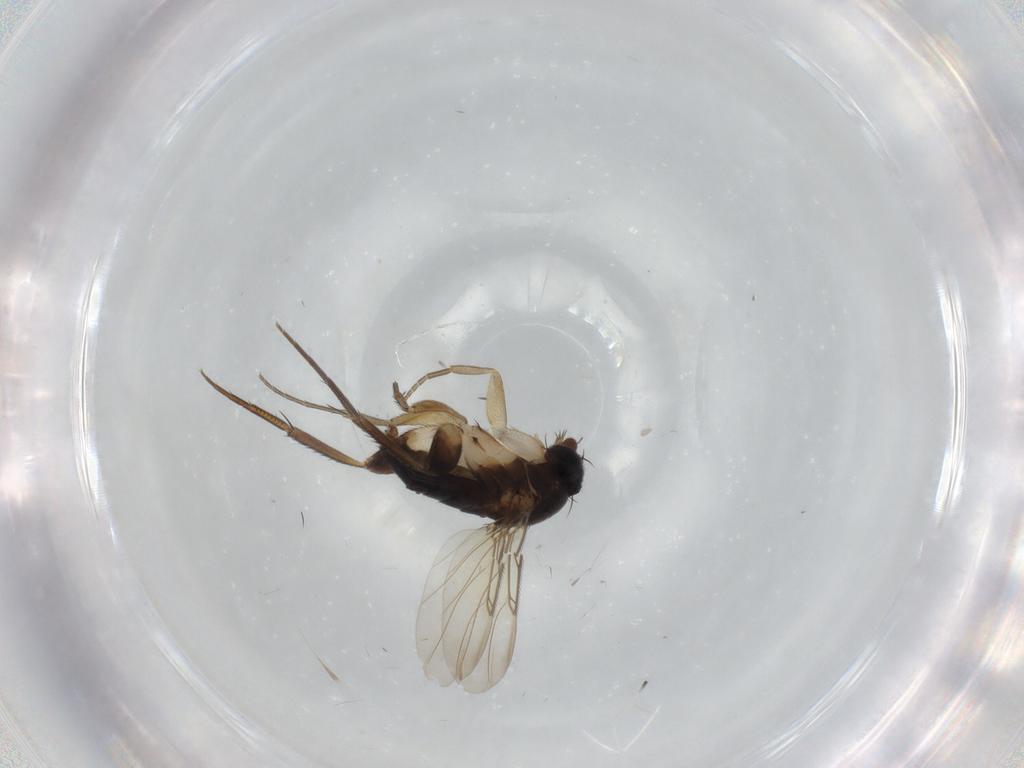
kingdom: Animalia
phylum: Arthropoda
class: Insecta
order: Diptera
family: Phoridae
